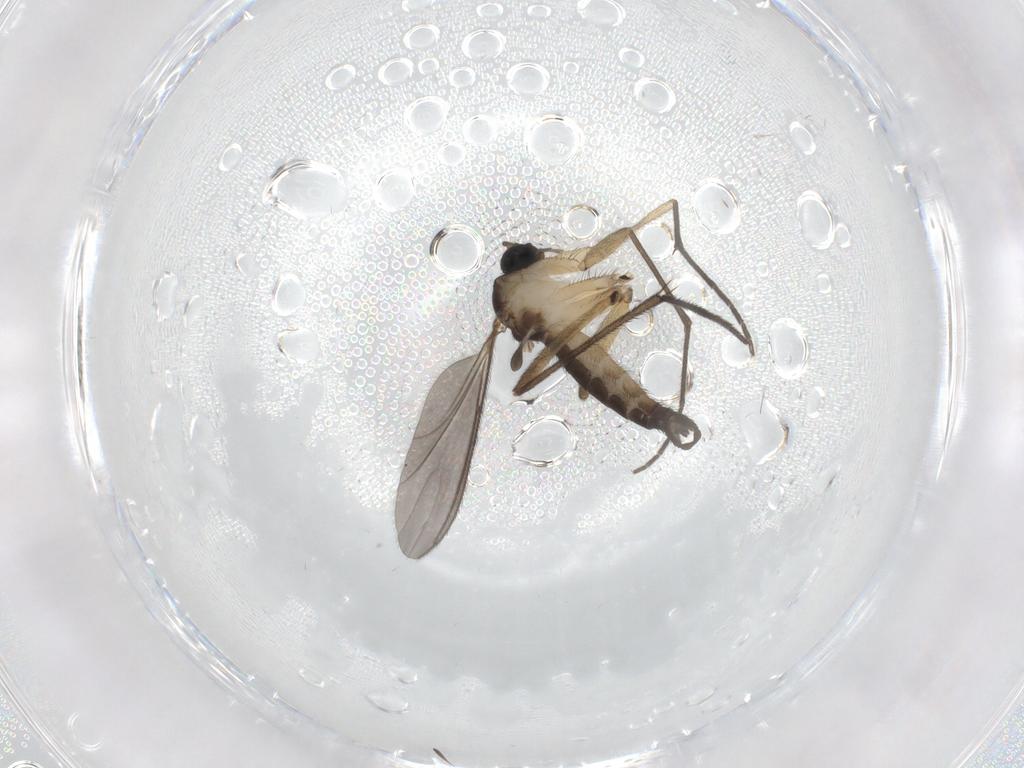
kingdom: Animalia
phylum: Arthropoda
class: Insecta
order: Diptera
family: Sciaridae
